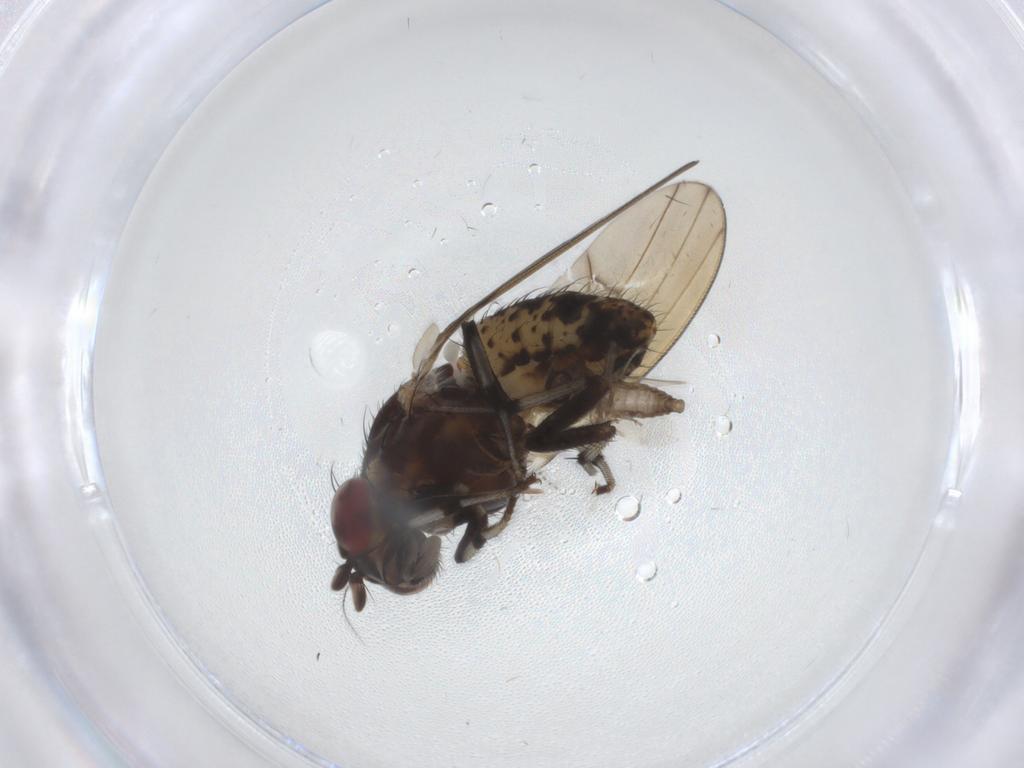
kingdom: Animalia
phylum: Arthropoda
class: Insecta
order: Diptera
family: Ceratopogonidae
